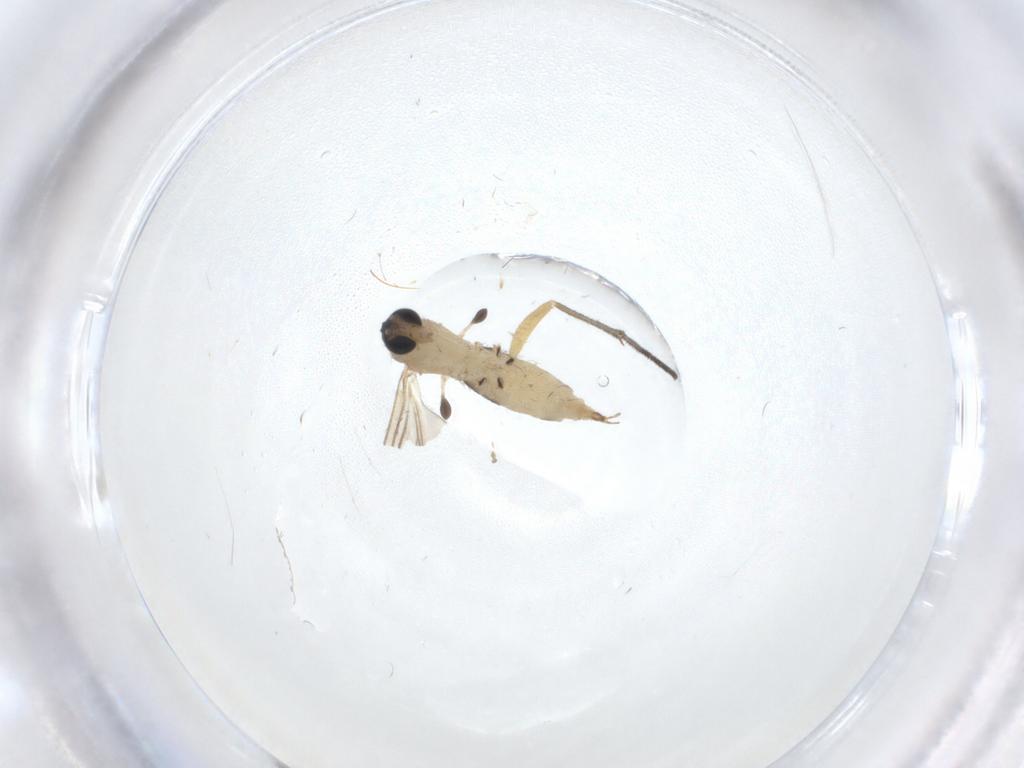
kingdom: Animalia
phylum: Arthropoda
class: Insecta
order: Diptera
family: Sciaridae
